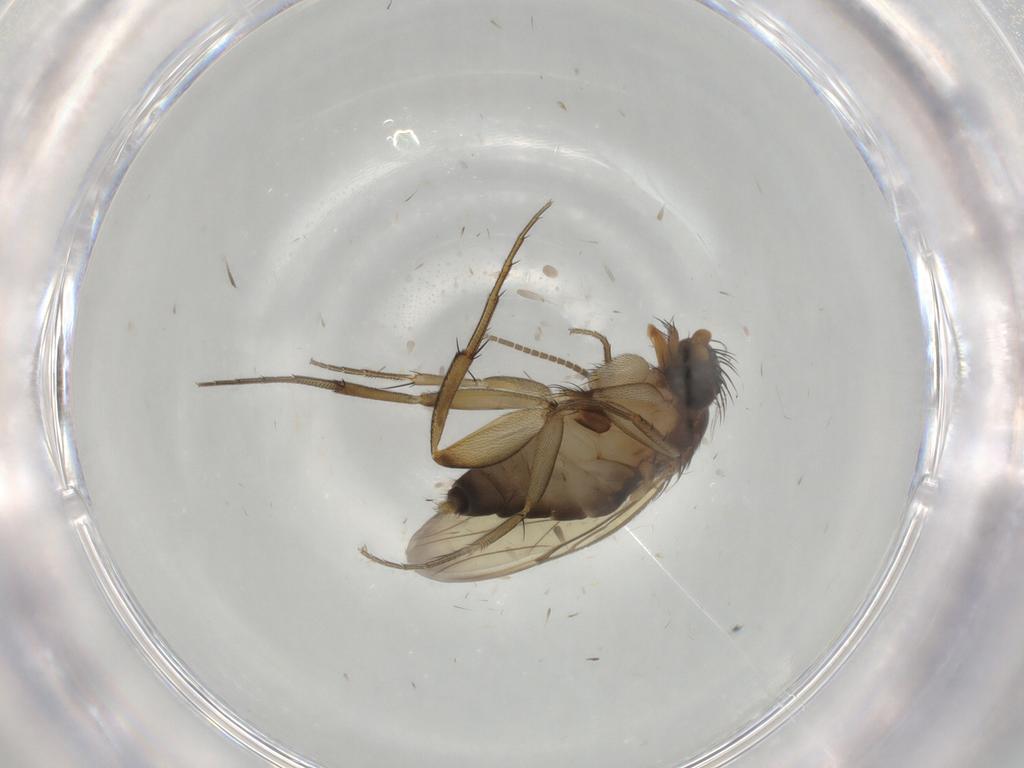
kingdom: Animalia
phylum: Arthropoda
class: Insecta
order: Diptera
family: Phoridae
